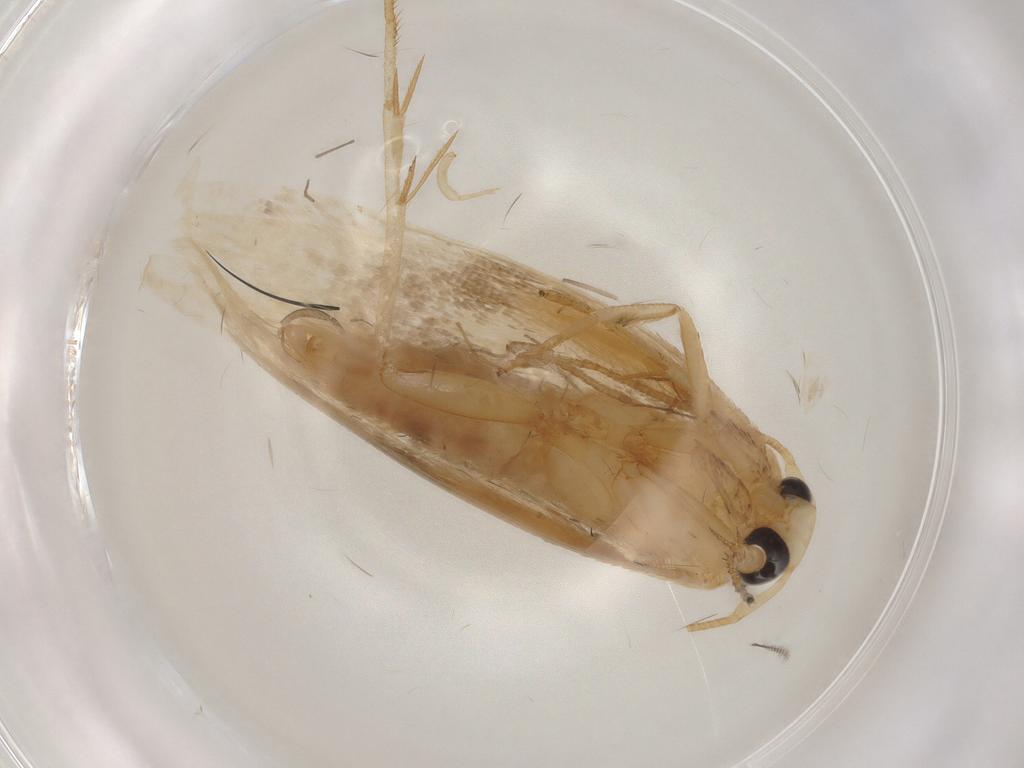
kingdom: Animalia
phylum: Arthropoda
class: Insecta
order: Lepidoptera
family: Geometridae
